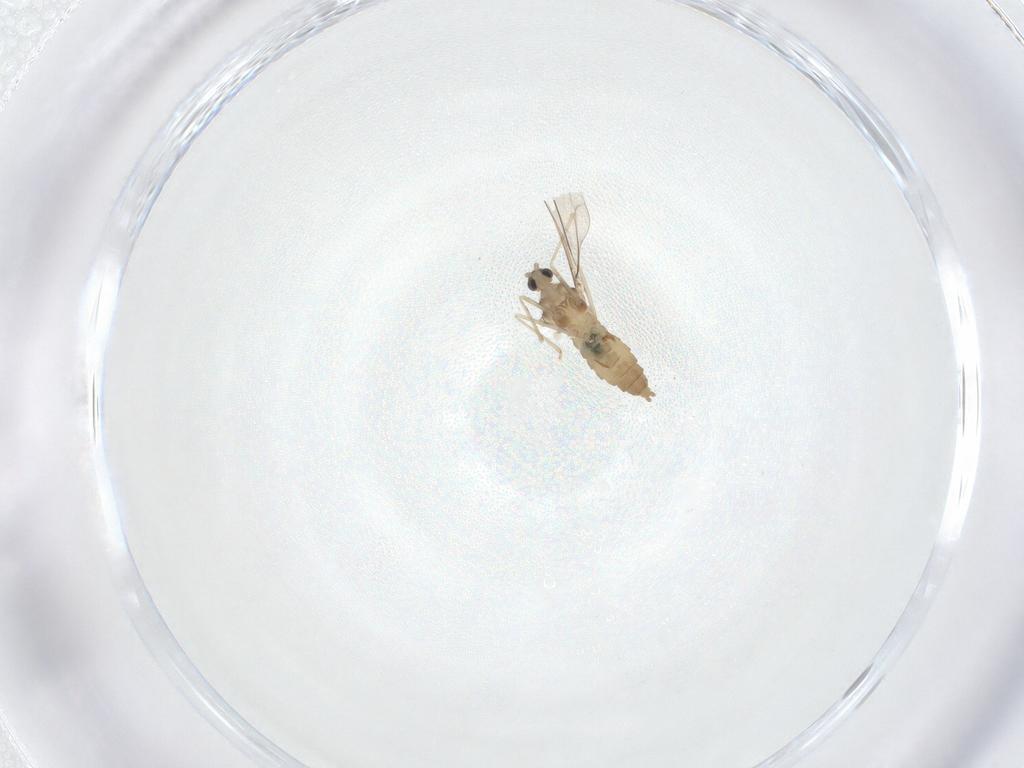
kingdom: Animalia
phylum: Arthropoda
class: Insecta
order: Diptera
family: Cecidomyiidae
